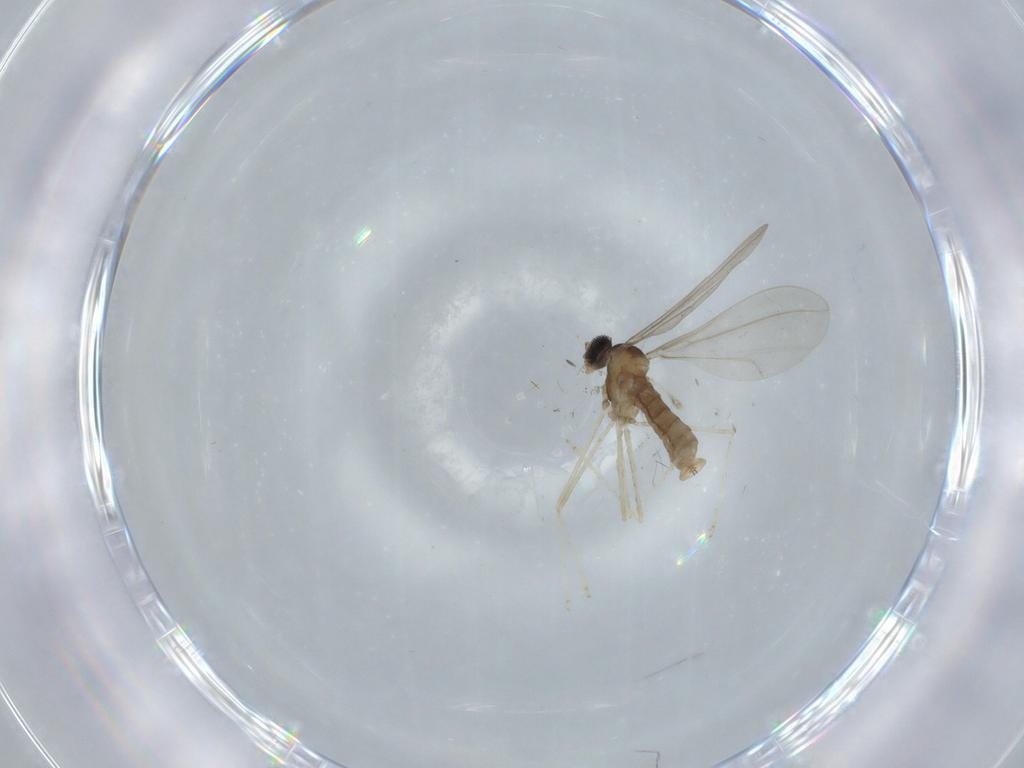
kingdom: Animalia
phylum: Arthropoda
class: Insecta
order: Diptera
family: Cecidomyiidae
